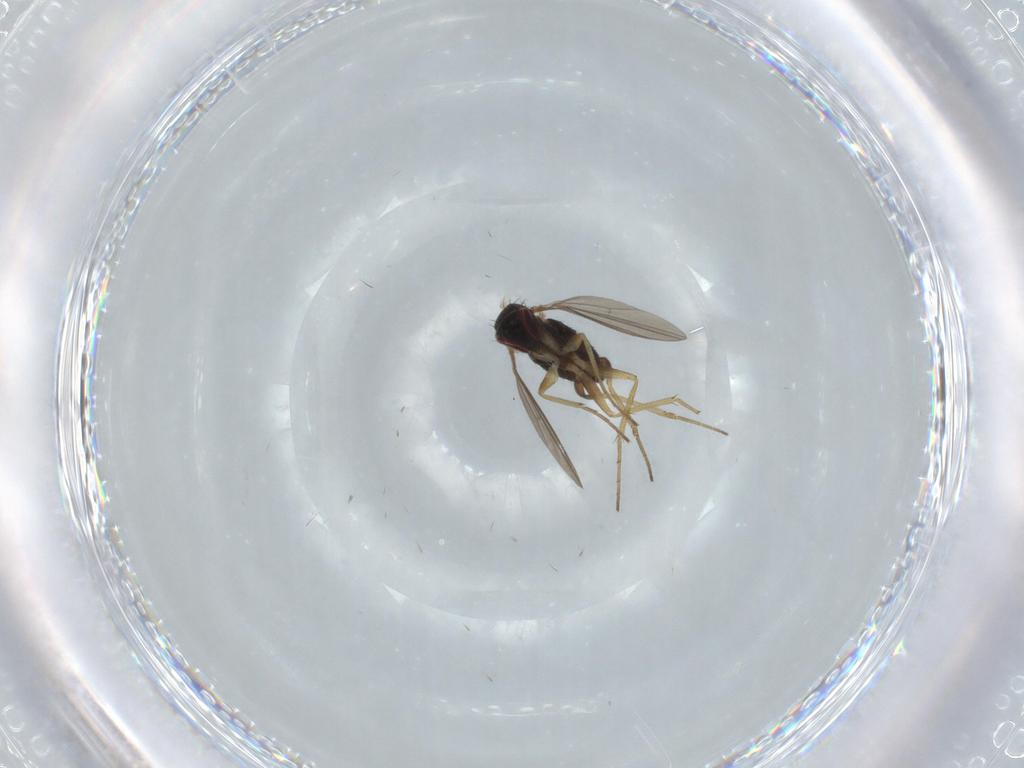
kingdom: Animalia
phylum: Arthropoda
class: Insecta
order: Diptera
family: Dolichopodidae
